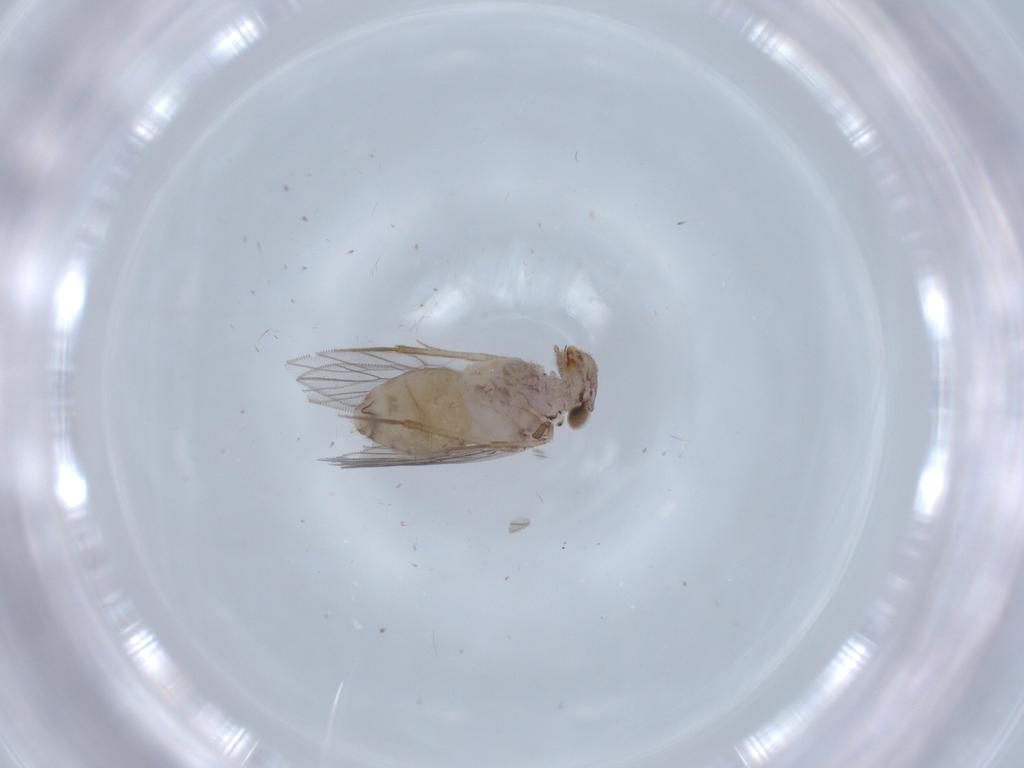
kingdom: Animalia
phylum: Arthropoda
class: Insecta
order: Psocodea
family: Lepidopsocidae
